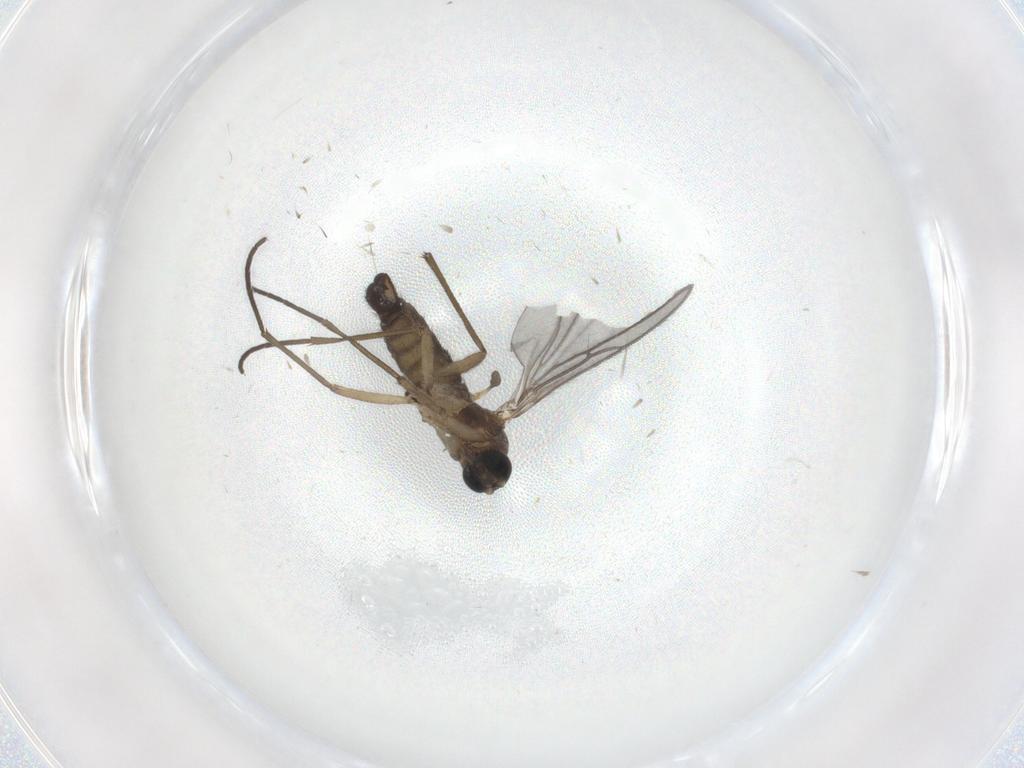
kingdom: Animalia
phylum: Arthropoda
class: Insecta
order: Diptera
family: Sciaridae
